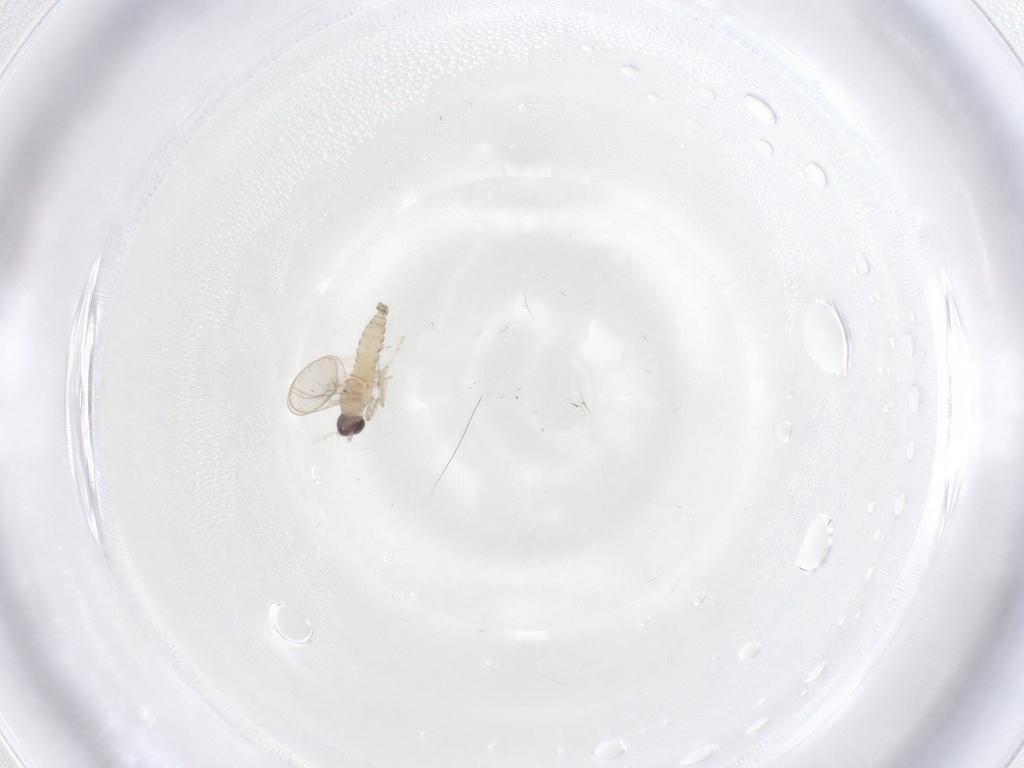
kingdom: Animalia
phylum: Arthropoda
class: Insecta
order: Diptera
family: Cecidomyiidae
